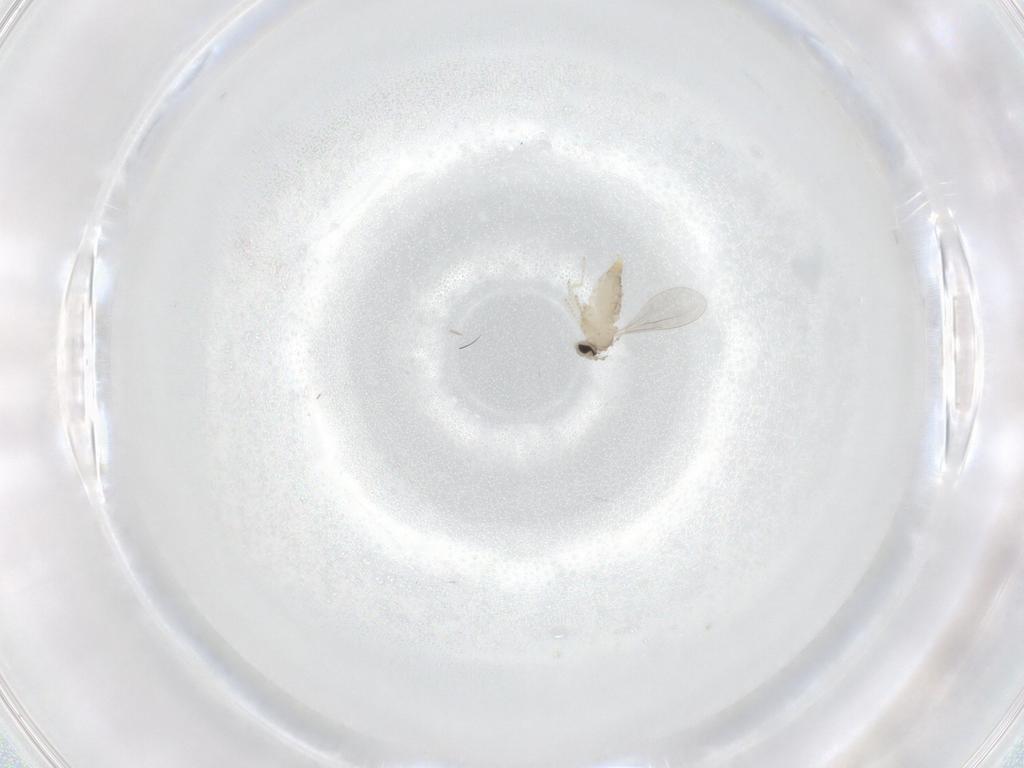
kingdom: Animalia
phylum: Arthropoda
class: Insecta
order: Diptera
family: Cecidomyiidae
